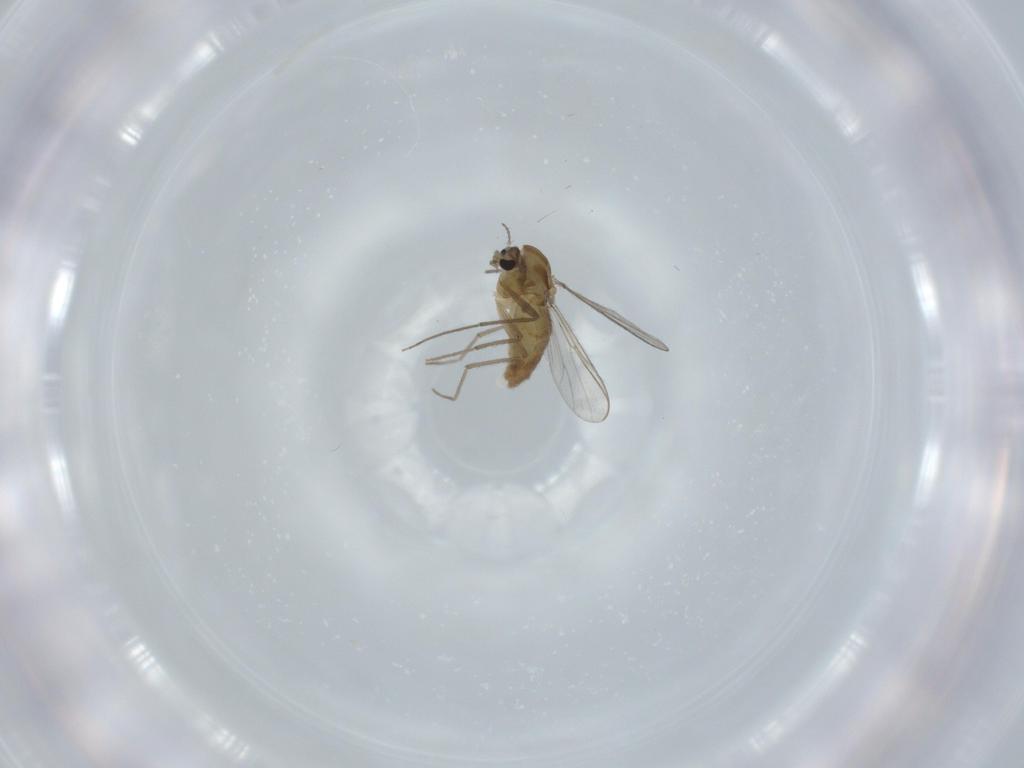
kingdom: Animalia
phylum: Arthropoda
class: Insecta
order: Diptera
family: Chironomidae
